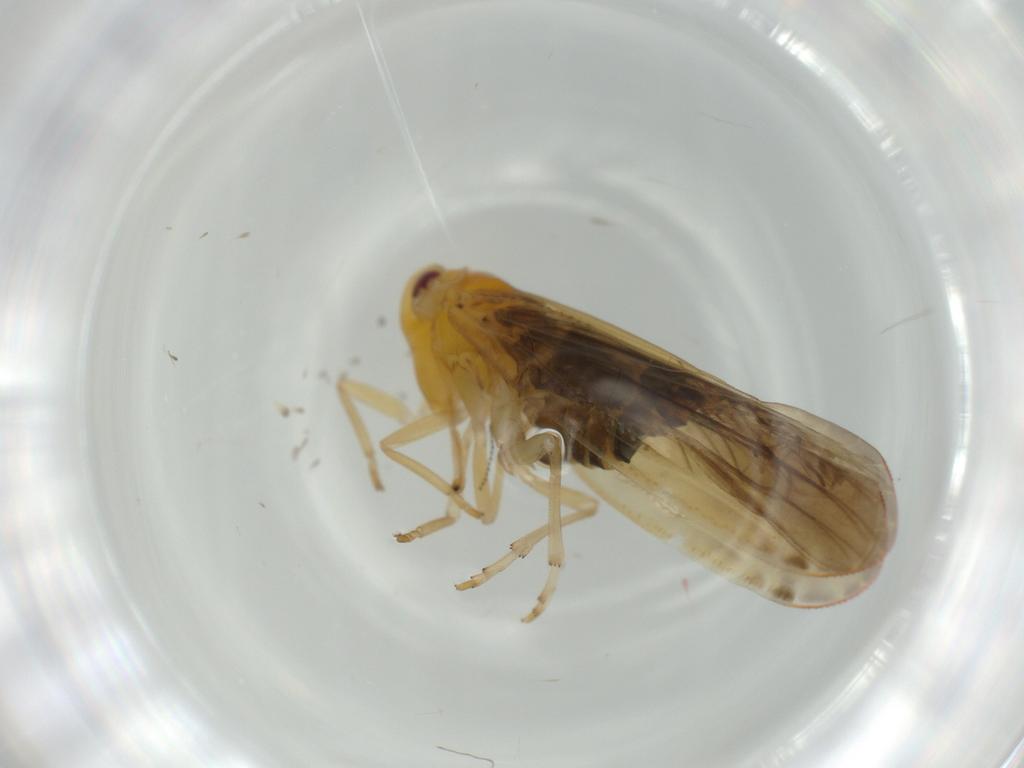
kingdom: Animalia
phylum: Arthropoda
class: Insecta
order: Hemiptera
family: Derbidae
